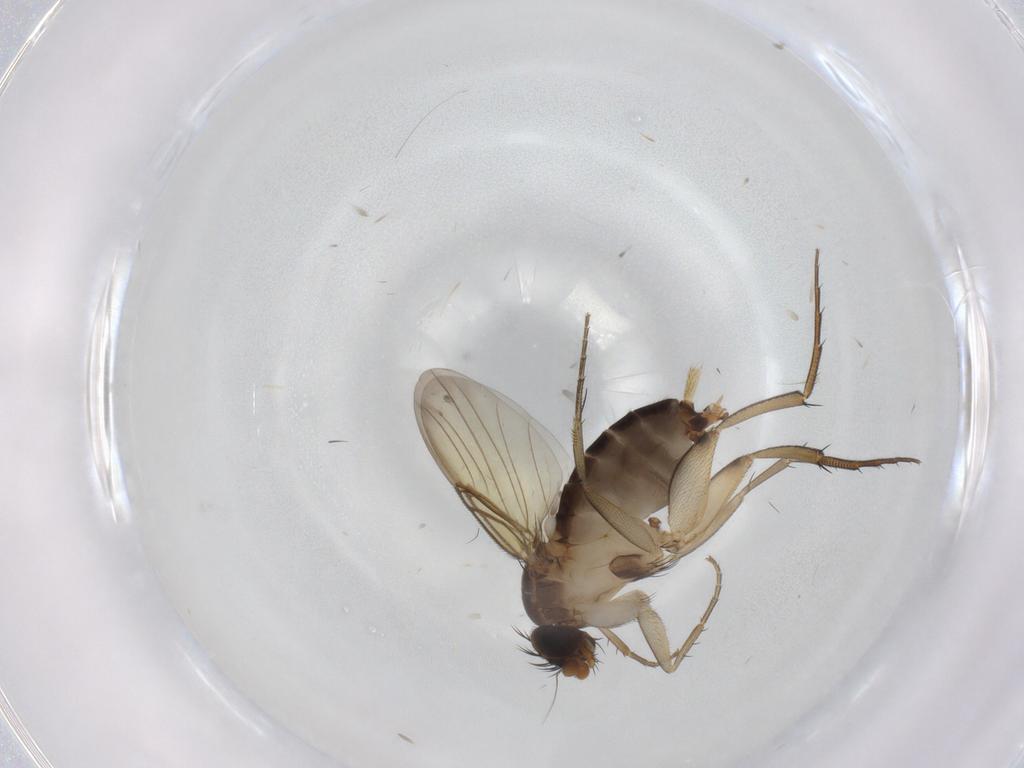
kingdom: Animalia
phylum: Arthropoda
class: Insecta
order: Diptera
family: Phoridae
